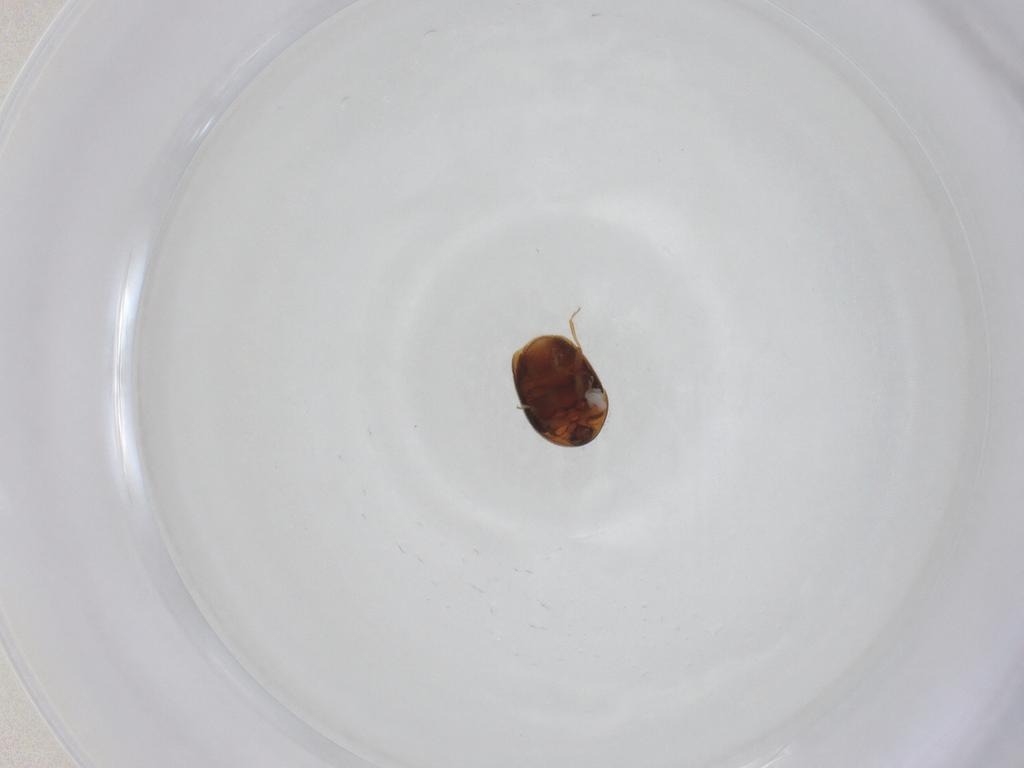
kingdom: Animalia
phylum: Arthropoda
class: Insecta
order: Coleoptera
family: Corylophidae
